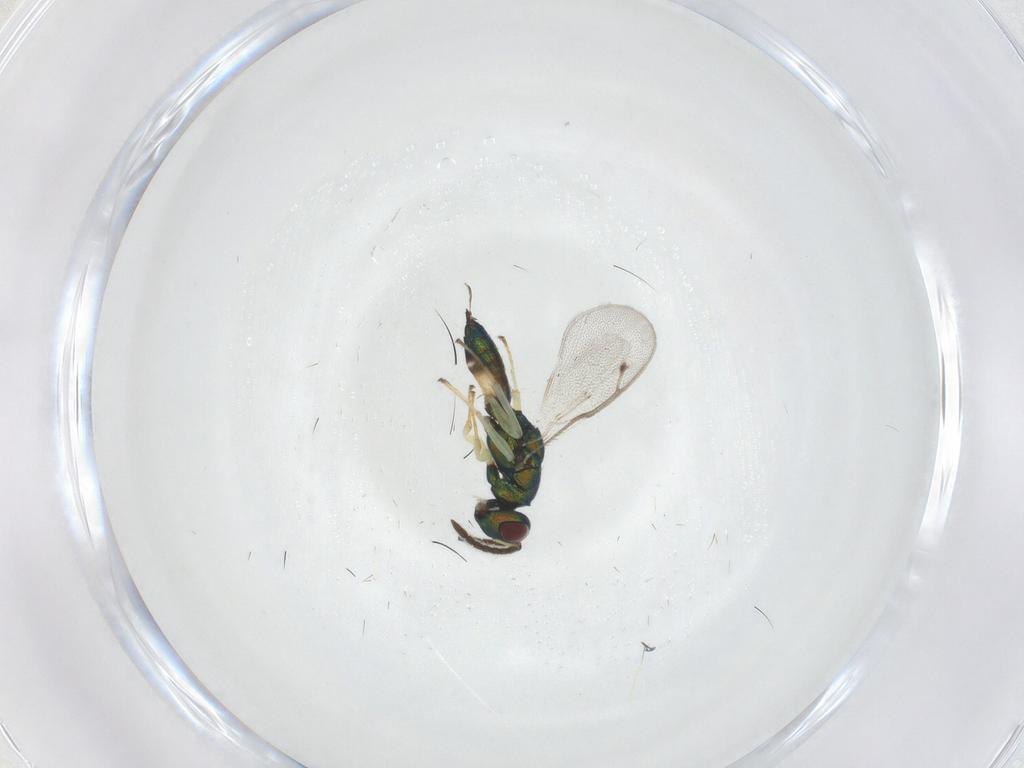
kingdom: Animalia
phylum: Arthropoda
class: Insecta
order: Hymenoptera
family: Pteromalidae
